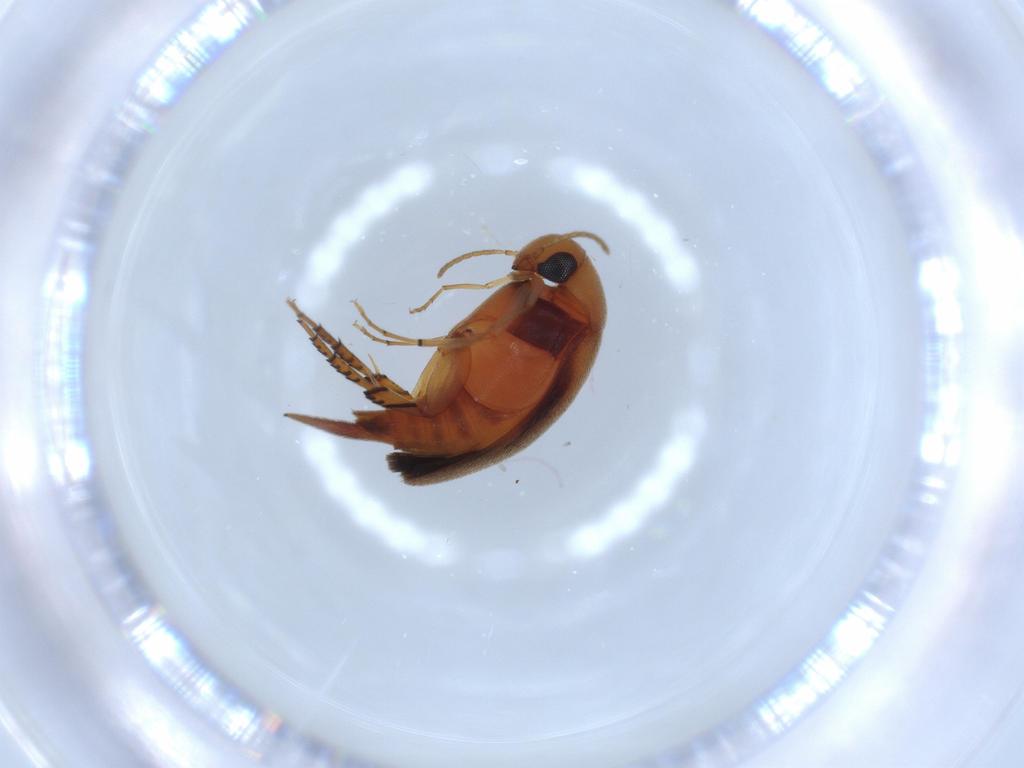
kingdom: Animalia
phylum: Arthropoda
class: Insecta
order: Coleoptera
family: Mordellidae
